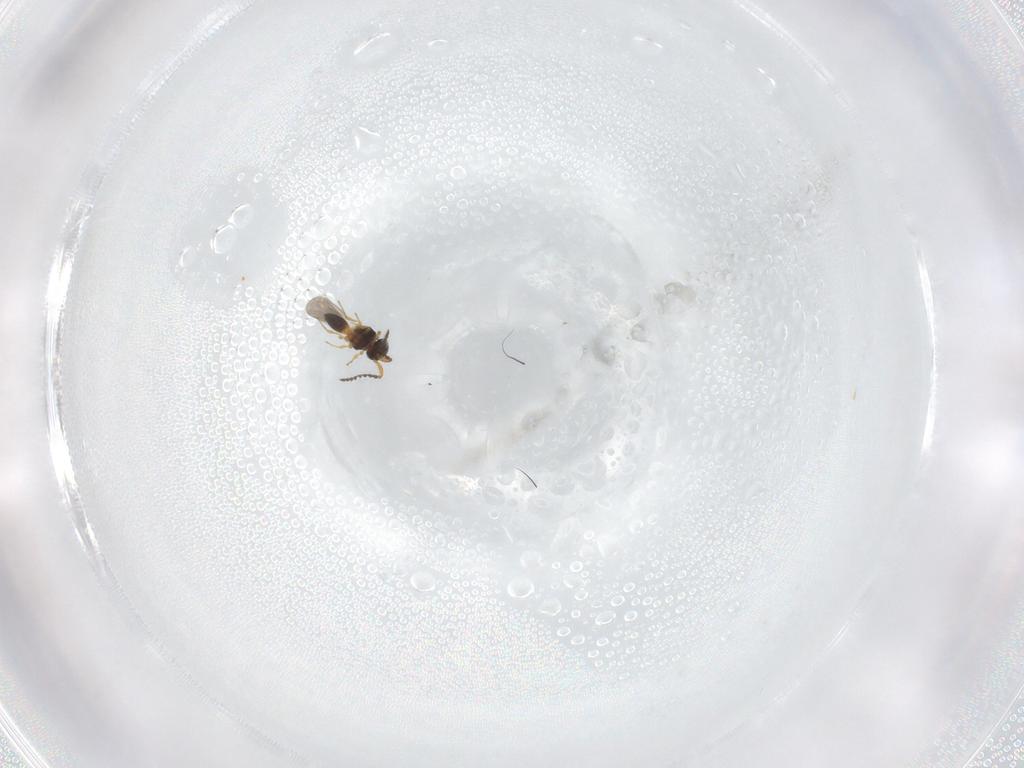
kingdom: Animalia
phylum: Arthropoda
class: Insecta
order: Hymenoptera
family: Platygastridae
